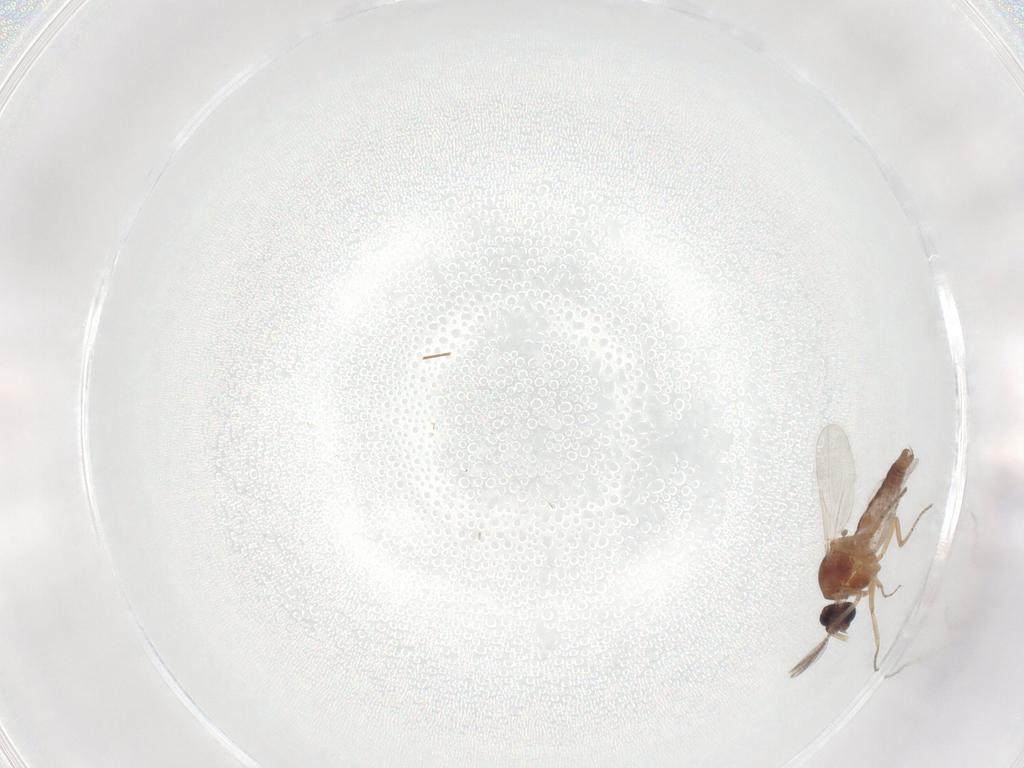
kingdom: Animalia
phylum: Arthropoda
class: Insecta
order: Diptera
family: Ceratopogonidae
